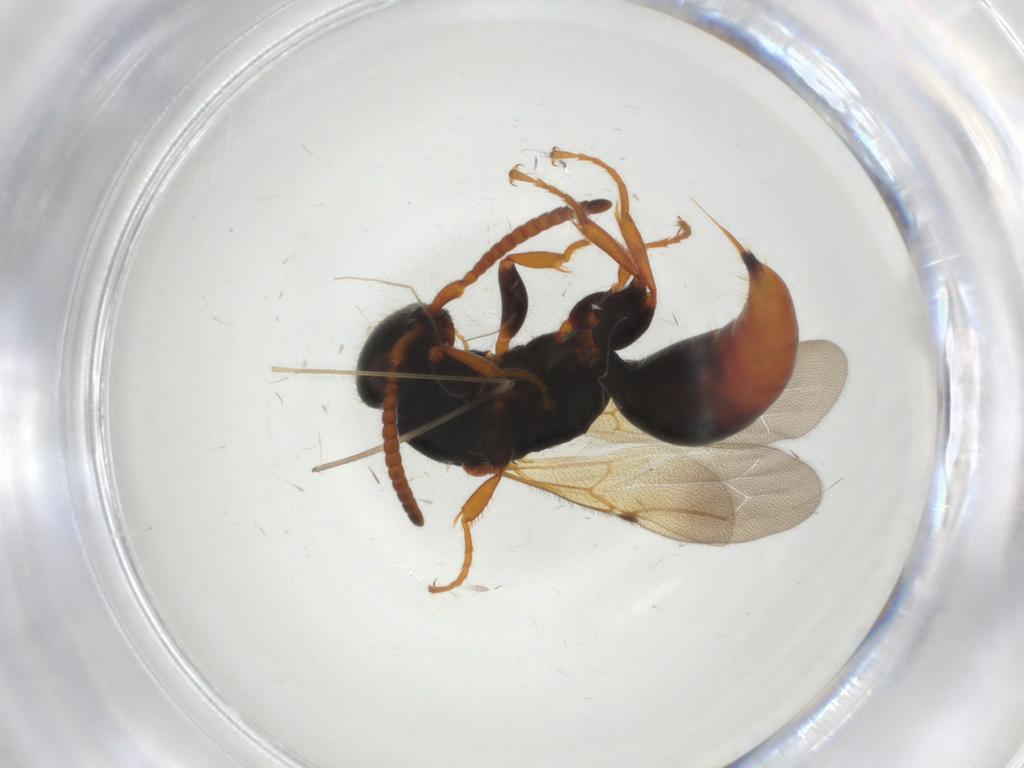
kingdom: Animalia
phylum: Arthropoda
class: Insecta
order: Hymenoptera
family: Bethylidae
